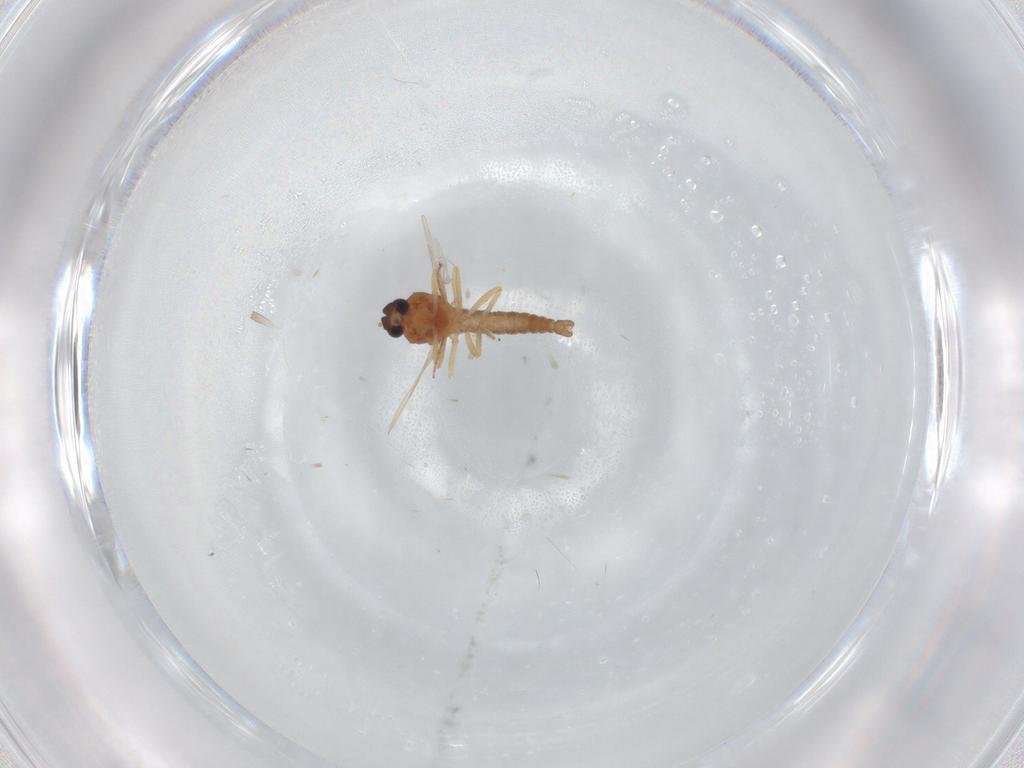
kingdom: Animalia
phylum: Arthropoda
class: Insecta
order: Diptera
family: Ceratopogonidae
